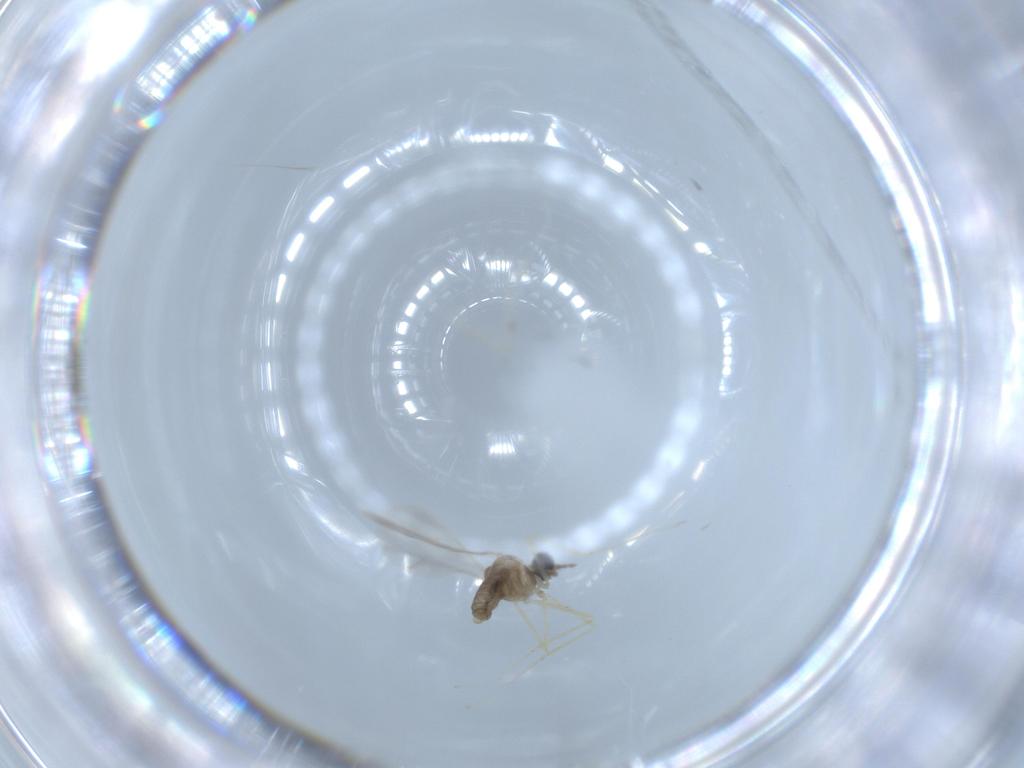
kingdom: Animalia
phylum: Arthropoda
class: Insecta
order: Diptera
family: Cecidomyiidae
